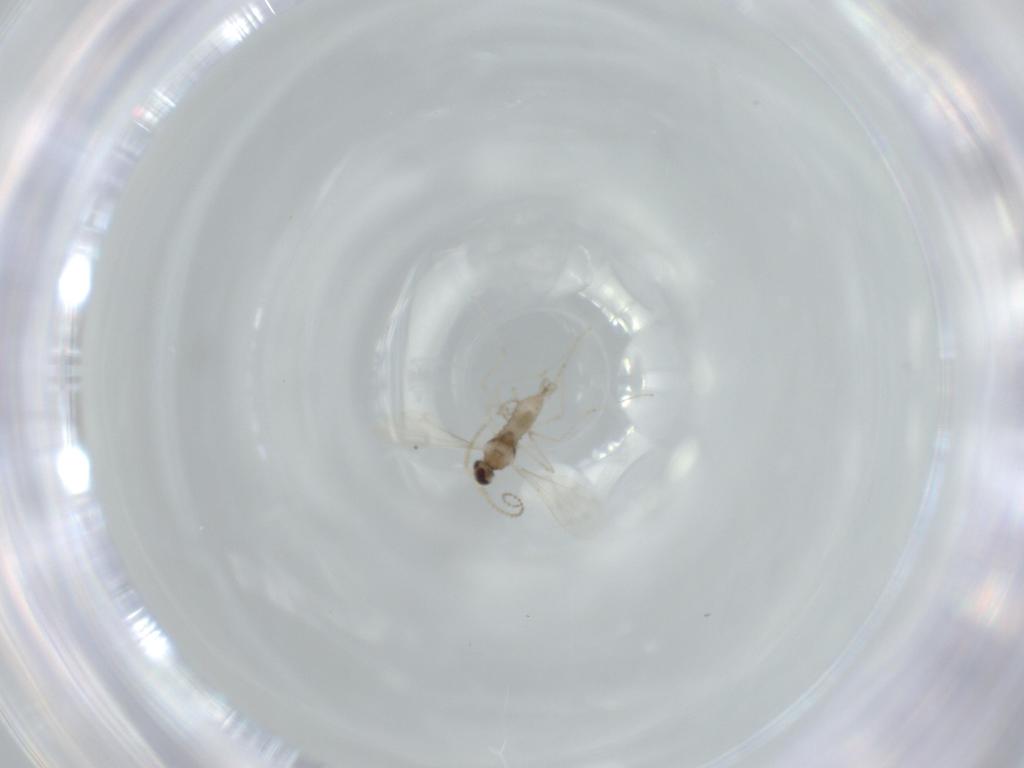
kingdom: Animalia
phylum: Arthropoda
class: Insecta
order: Diptera
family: Cecidomyiidae
